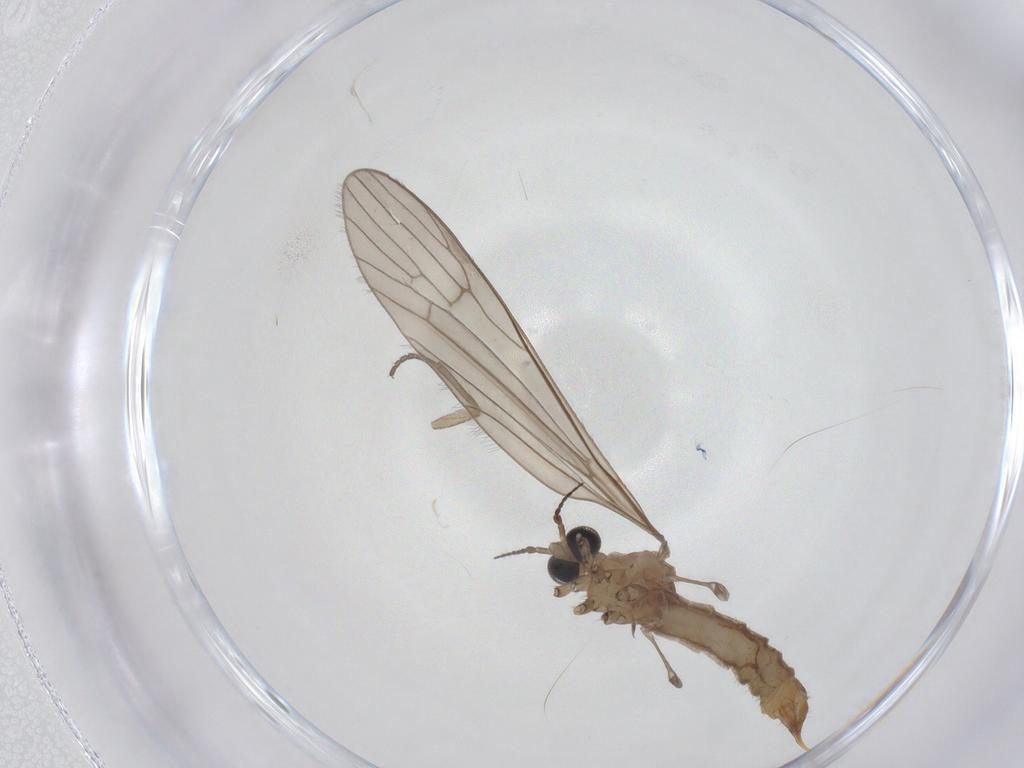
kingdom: Animalia
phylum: Arthropoda
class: Insecta
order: Diptera
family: Limoniidae
